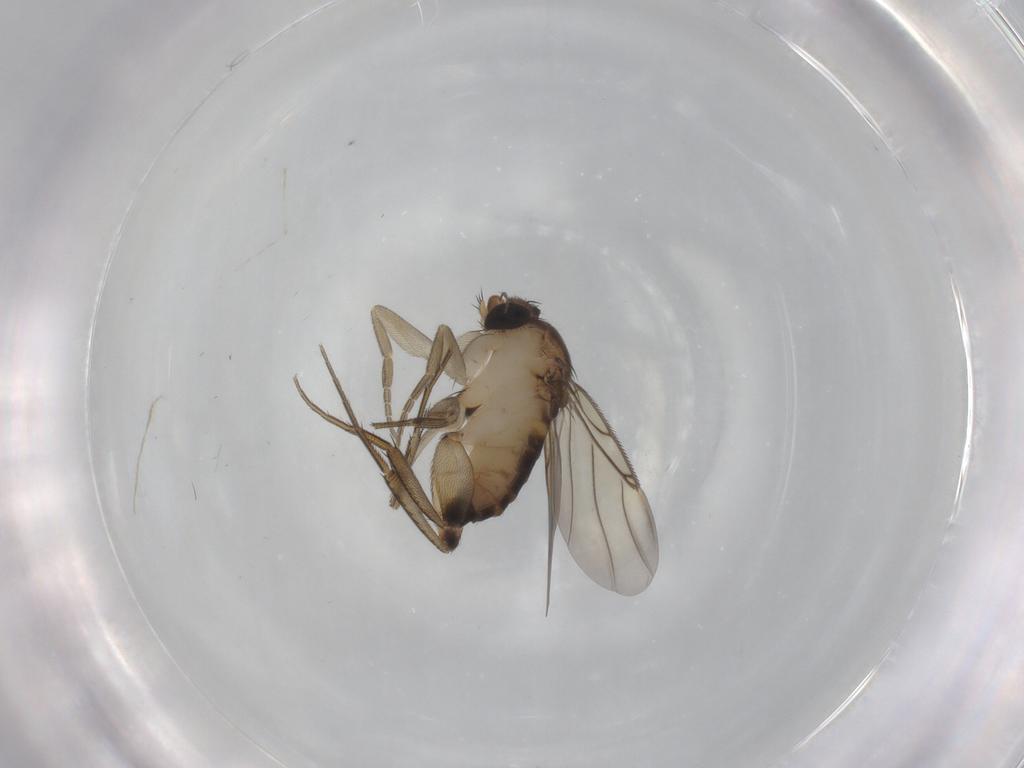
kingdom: Animalia
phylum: Arthropoda
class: Insecta
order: Diptera
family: Phoridae
